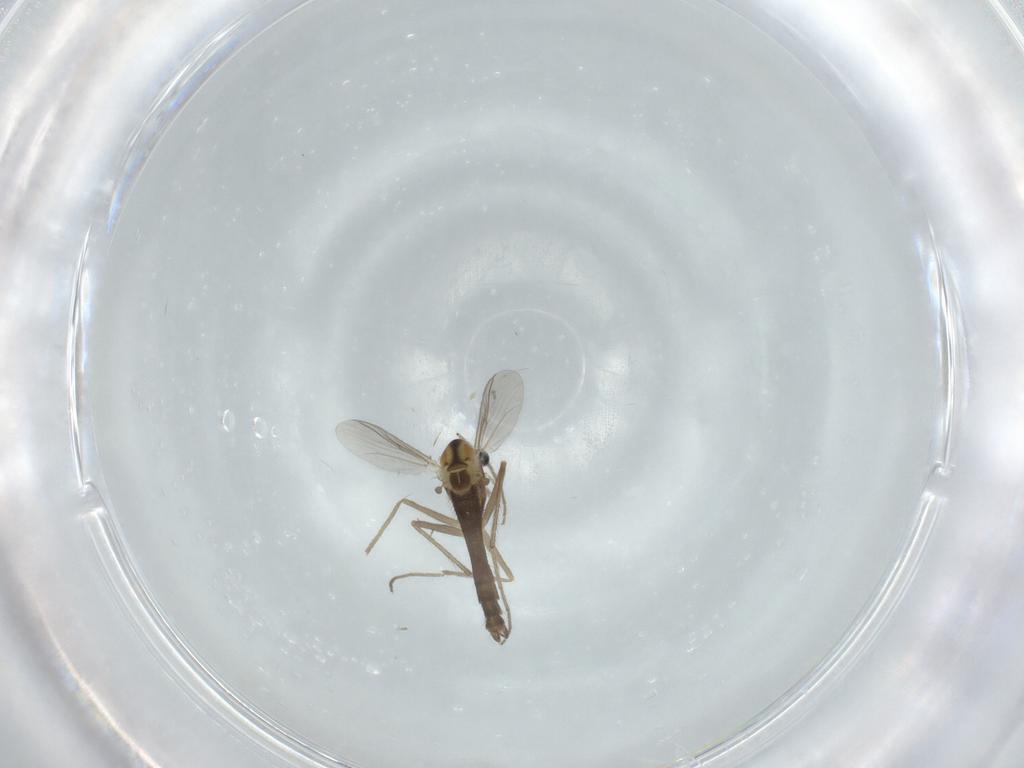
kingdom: Animalia
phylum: Arthropoda
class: Insecta
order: Diptera
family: Chironomidae
